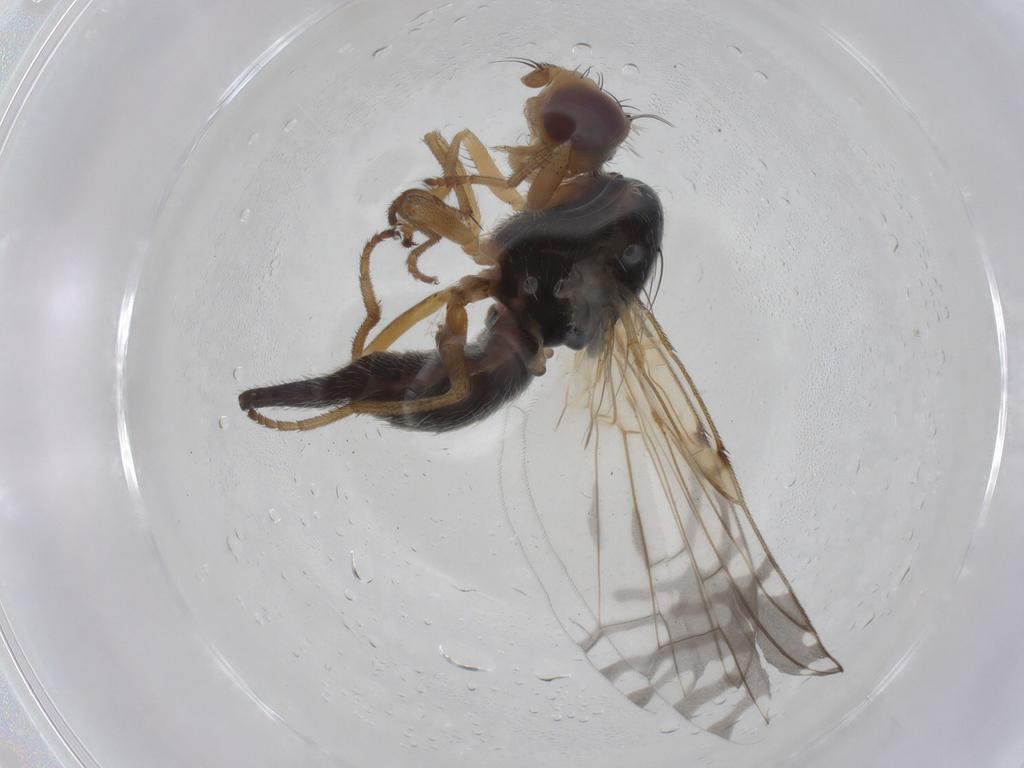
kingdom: Animalia
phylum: Arthropoda
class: Insecta
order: Diptera
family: Tephritidae
